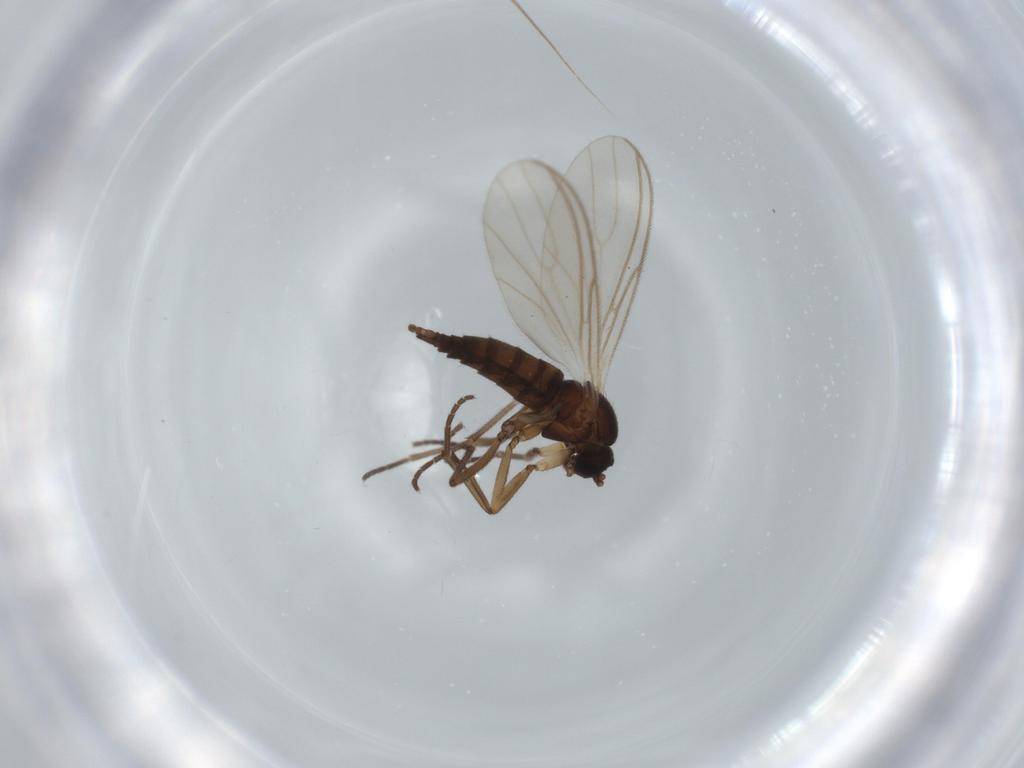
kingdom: Animalia
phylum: Arthropoda
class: Insecta
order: Diptera
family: Sciaridae
